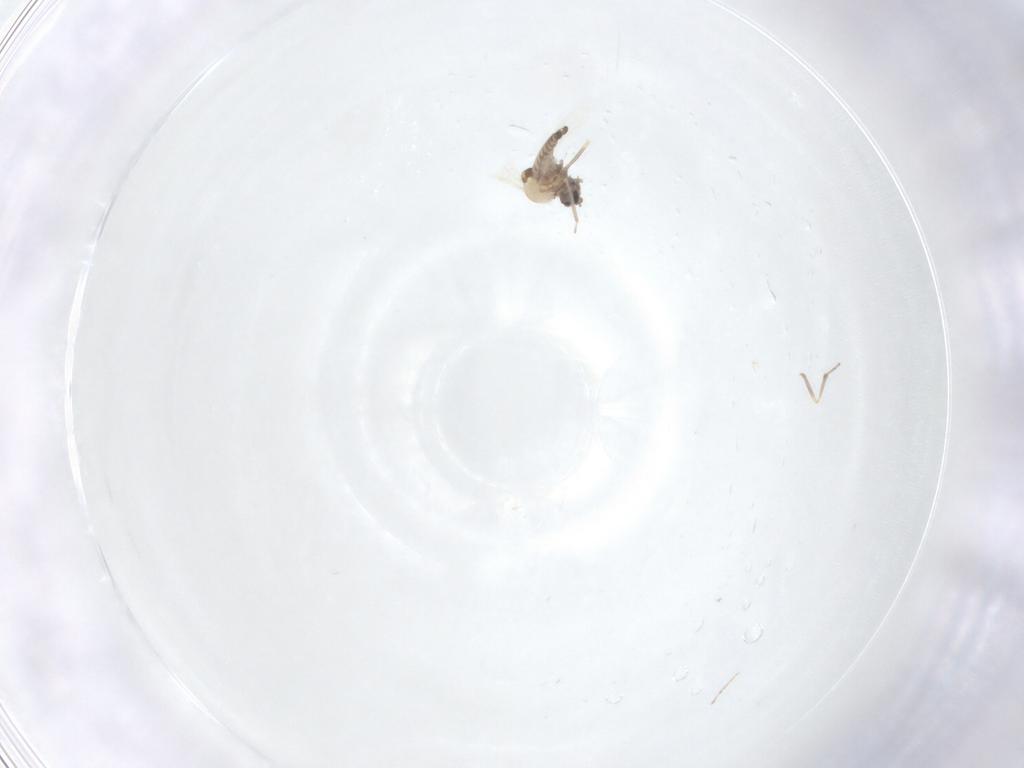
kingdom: Animalia
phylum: Arthropoda
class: Insecta
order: Diptera
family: Ceratopogonidae
